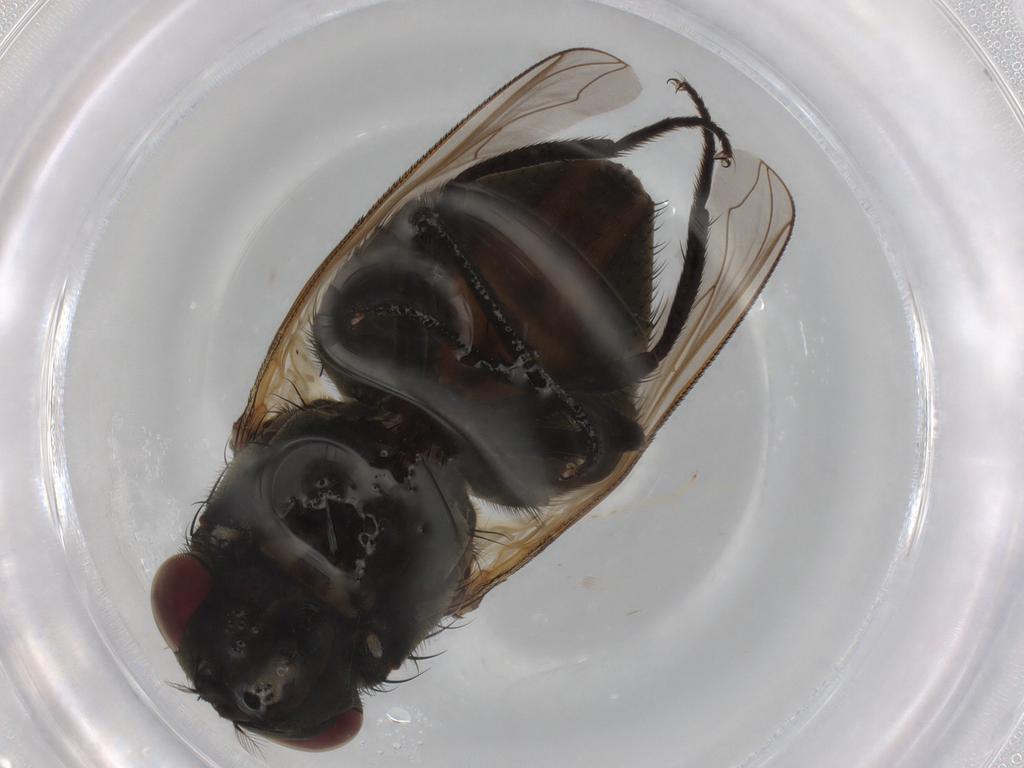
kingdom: Animalia
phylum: Arthropoda
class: Insecta
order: Diptera
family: Muscidae
